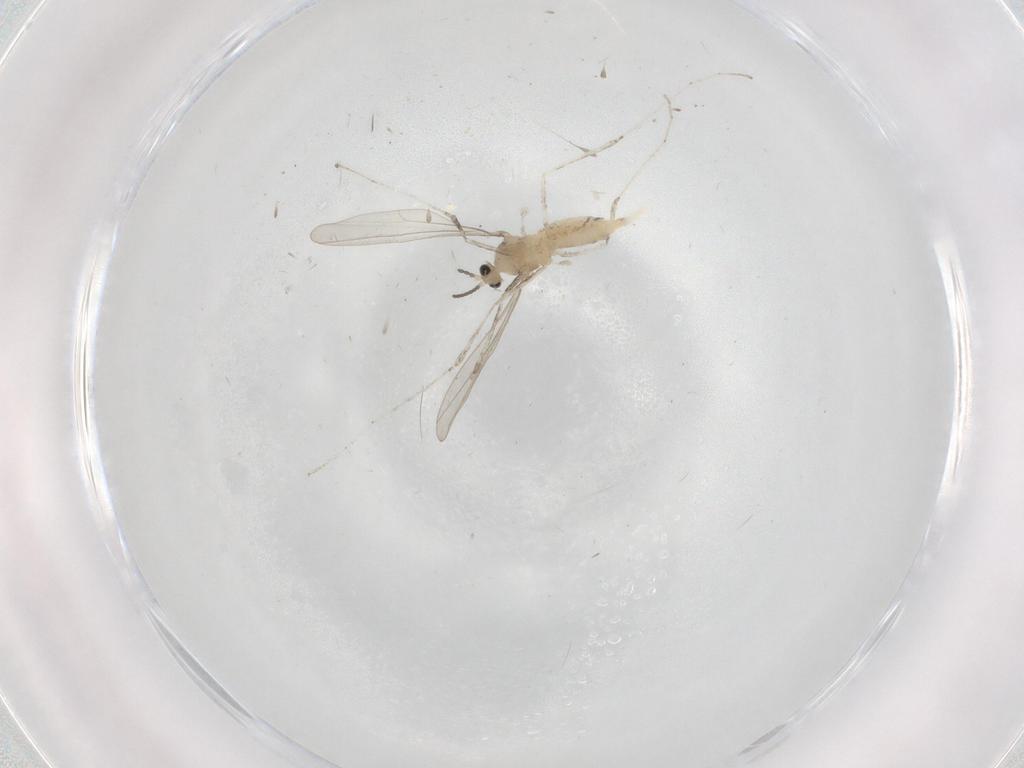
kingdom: Animalia
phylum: Arthropoda
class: Insecta
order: Diptera
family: Cecidomyiidae
